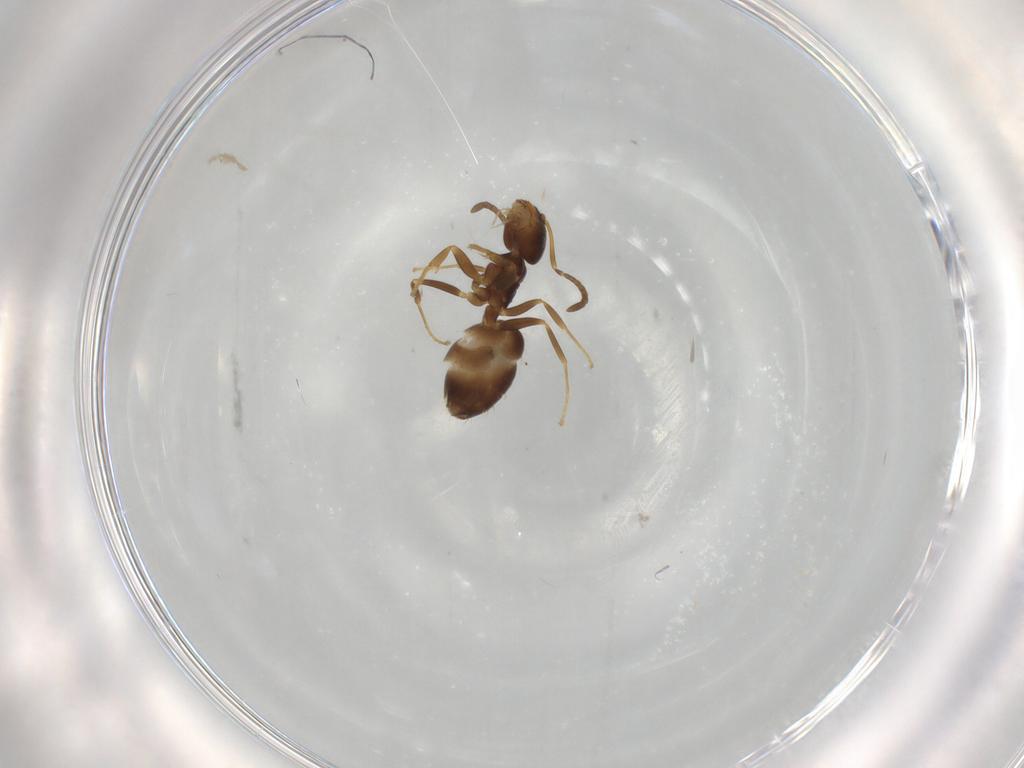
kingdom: Animalia
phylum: Arthropoda
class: Insecta
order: Hymenoptera
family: Formicidae
